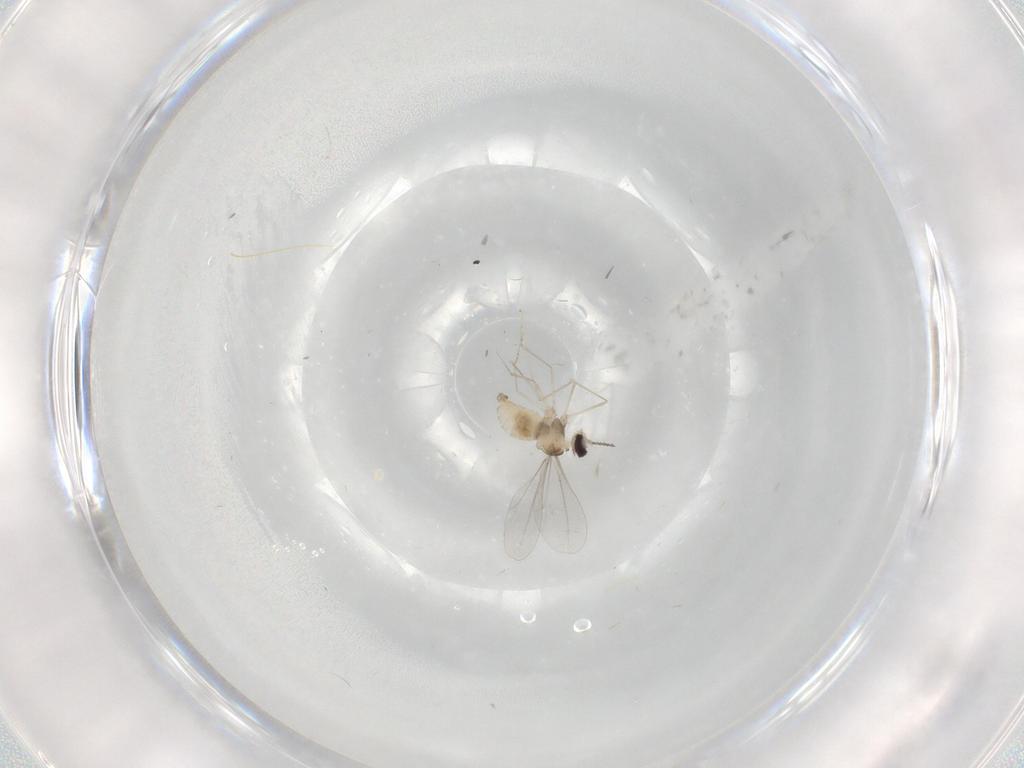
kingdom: Animalia
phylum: Arthropoda
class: Insecta
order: Diptera
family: Cecidomyiidae
